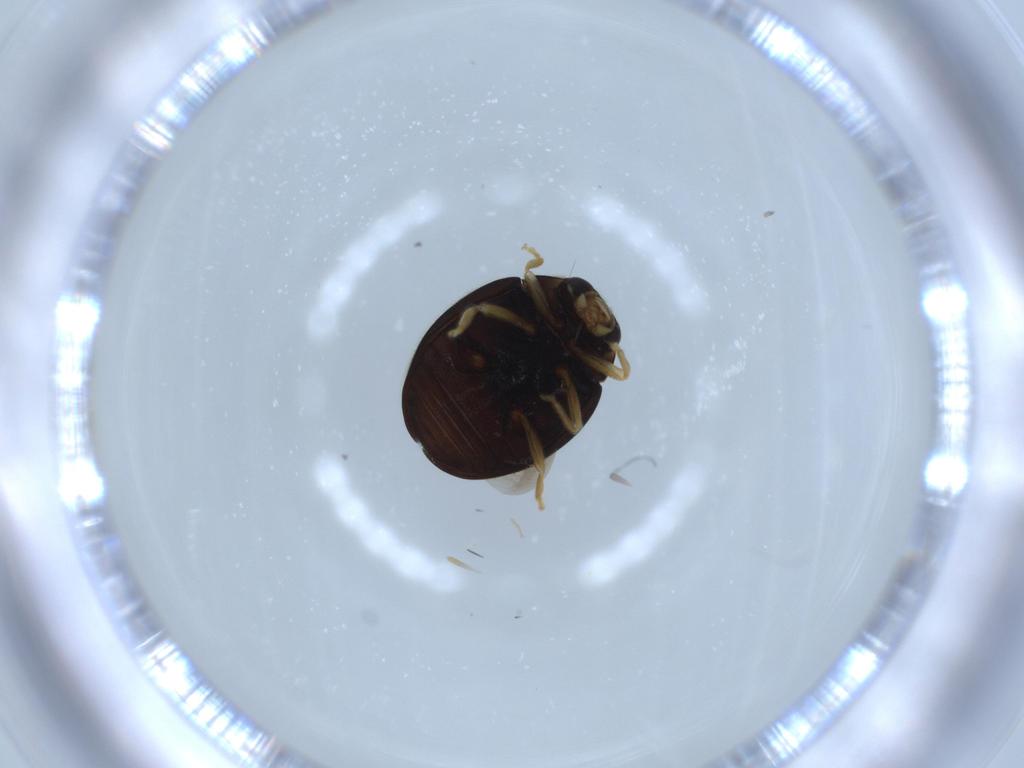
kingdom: Animalia
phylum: Arthropoda
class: Insecta
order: Coleoptera
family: Coccinellidae
